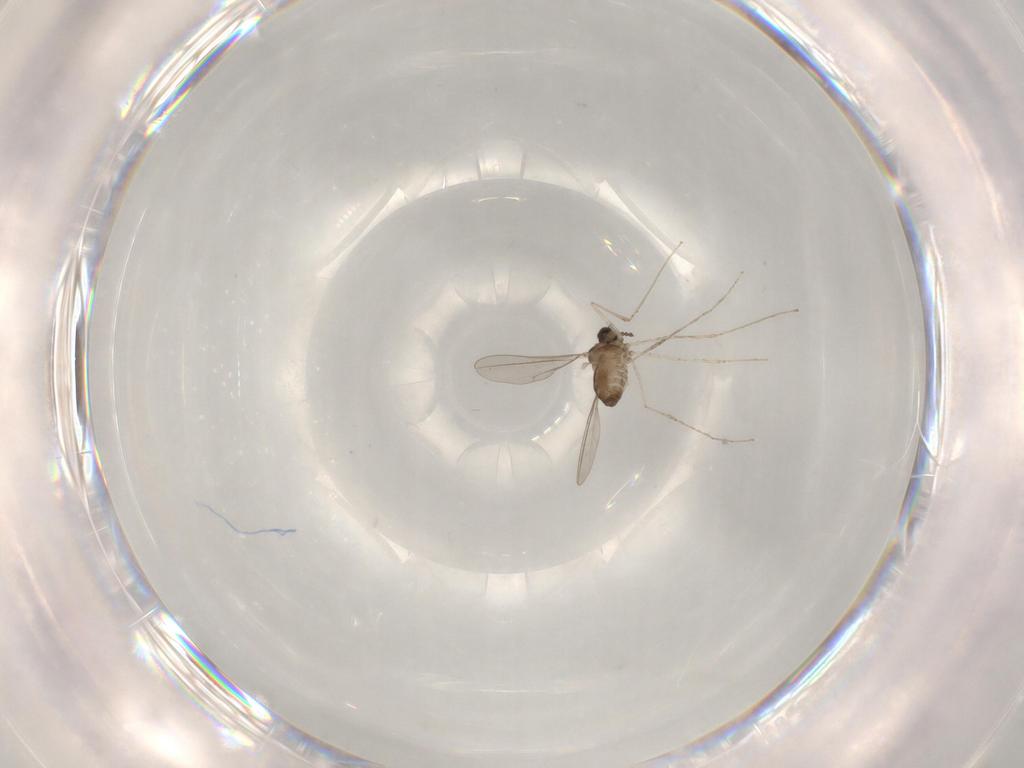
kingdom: Animalia
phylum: Arthropoda
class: Insecta
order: Diptera
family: Cecidomyiidae
